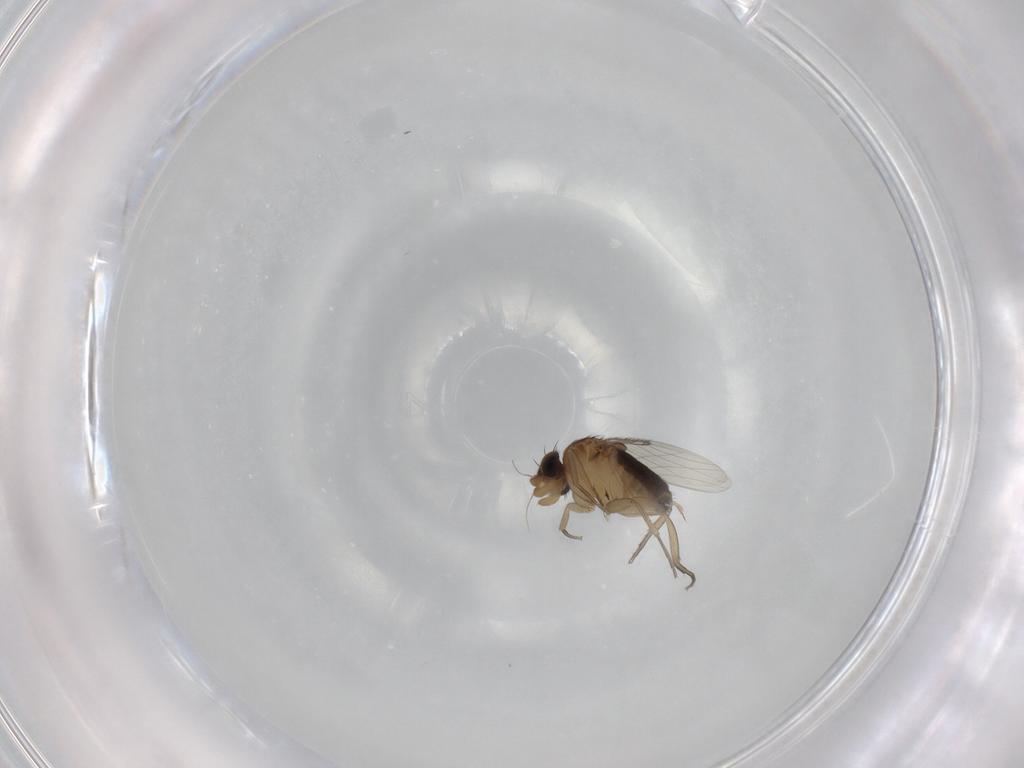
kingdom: Animalia
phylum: Arthropoda
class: Insecta
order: Diptera
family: Sciaridae
